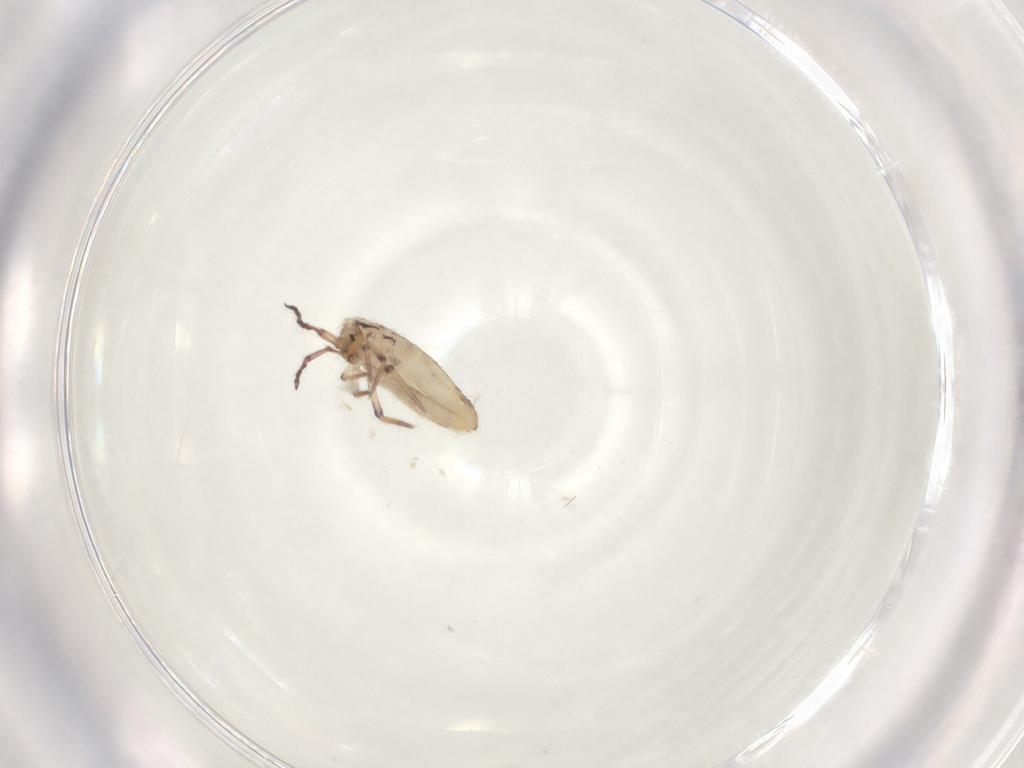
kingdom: Animalia
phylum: Arthropoda
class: Collembola
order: Entomobryomorpha
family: Entomobryidae
